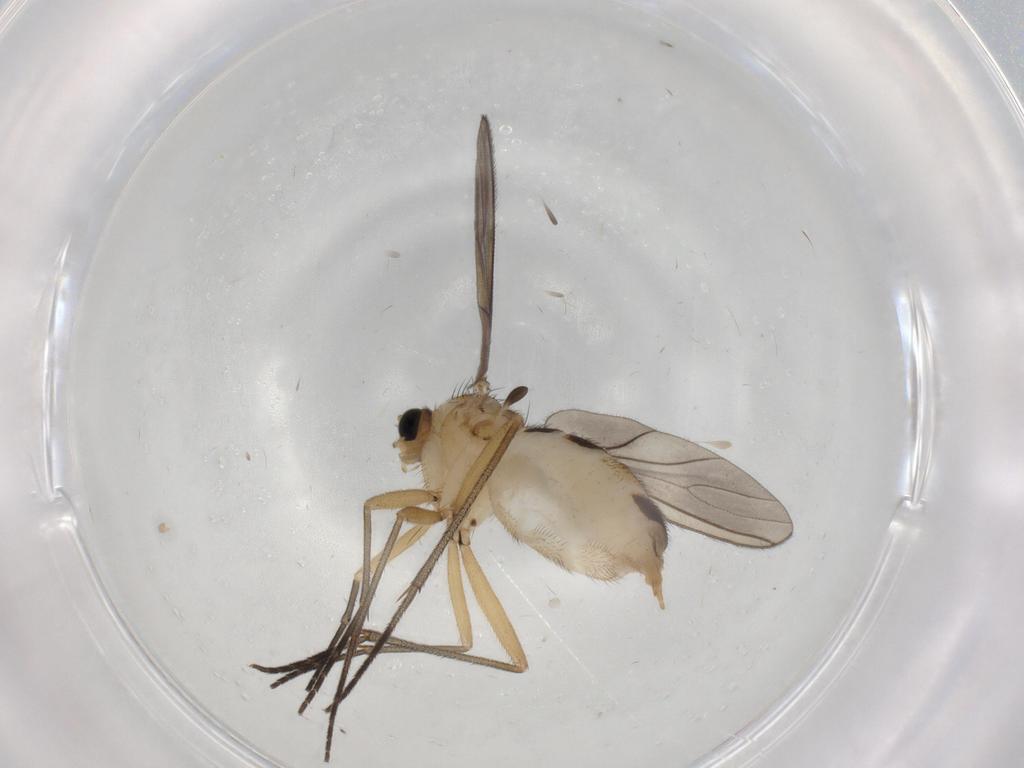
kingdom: Animalia
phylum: Arthropoda
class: Insecta
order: Diptera
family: Sciaridae
